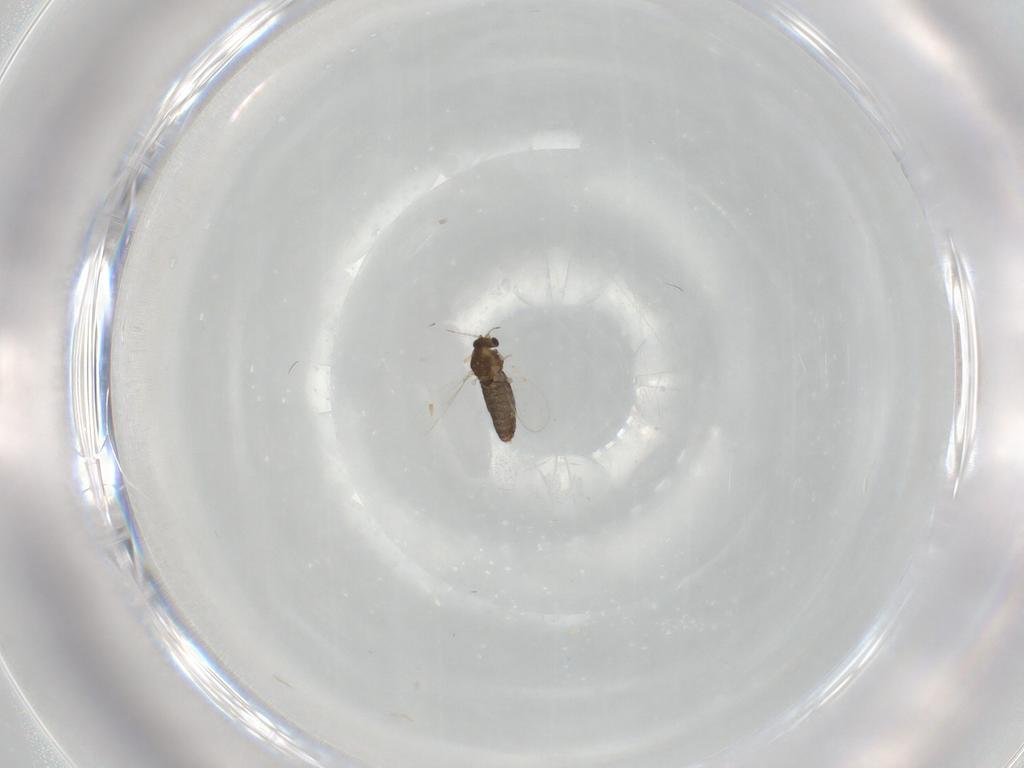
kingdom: Animalia
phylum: Arthropoda
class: Insecta
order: Diptera
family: Chironomidae
